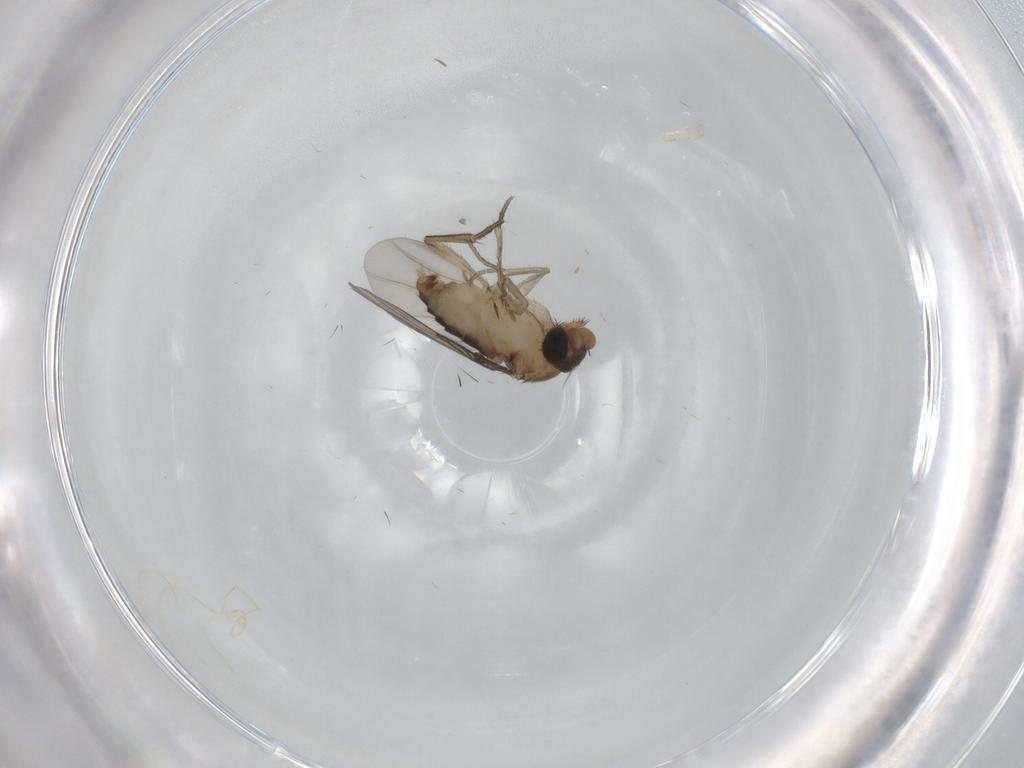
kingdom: Animalia
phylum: Arthropoda
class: Insecta
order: Diptera
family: Phoridae
